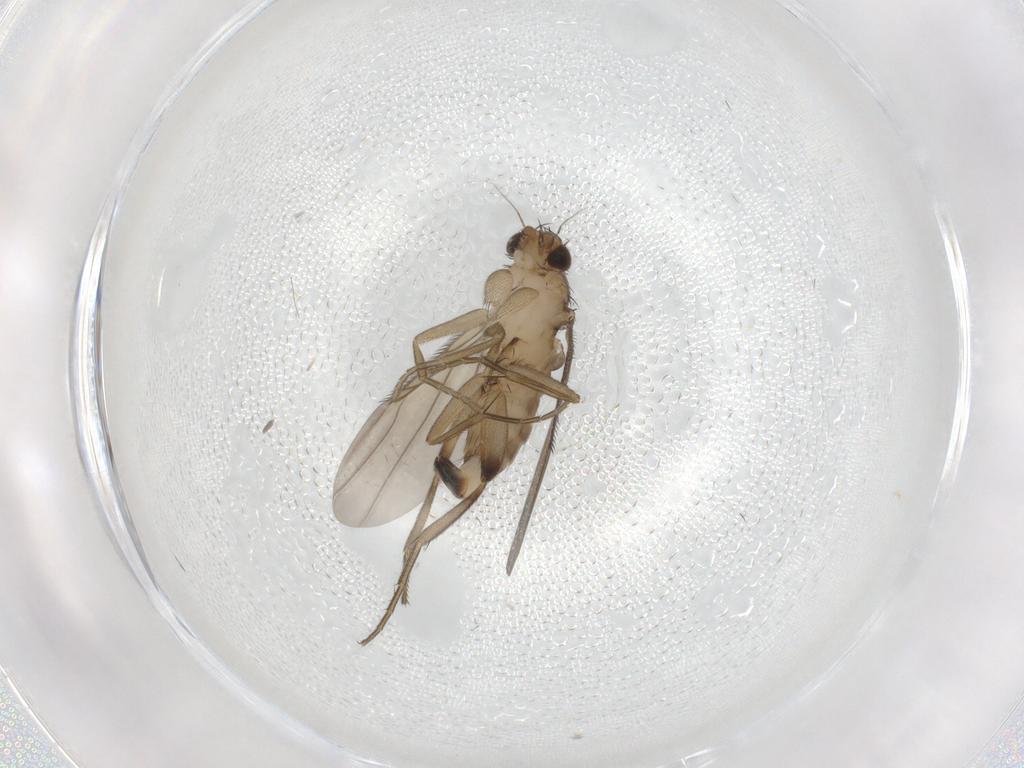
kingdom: Animalia
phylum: Arthropoda
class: Insecta
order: Diptera
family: Phoridae
